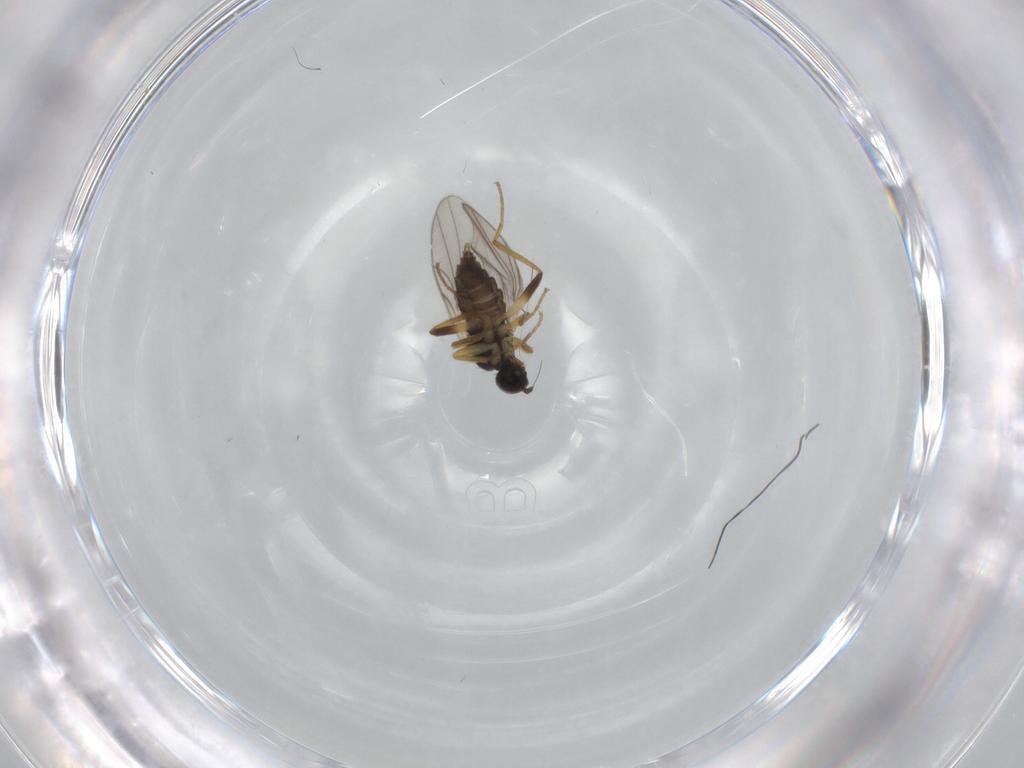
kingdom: Animalia
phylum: Arthropoda
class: Insecta
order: Diptera
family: Hybotidae
